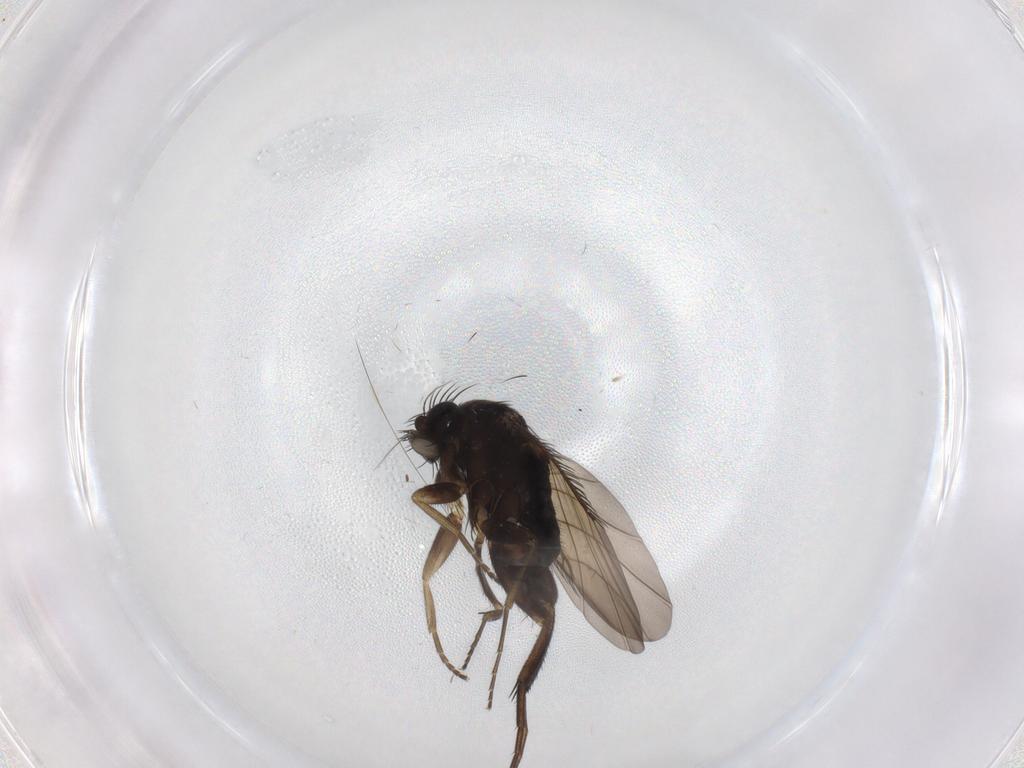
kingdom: Animalia
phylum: Arthropoda
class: Insecta
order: Diptera
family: Phoridae
